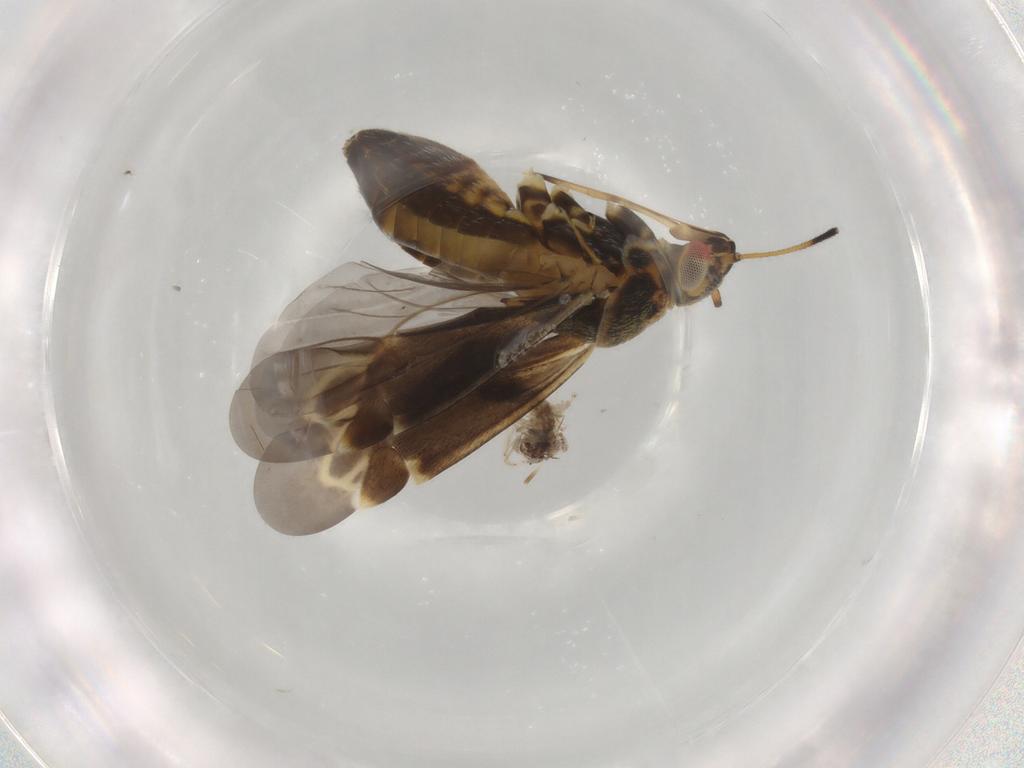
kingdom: Animalia
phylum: Arthropoda
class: Insecta
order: Hemiptera
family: Miridae
